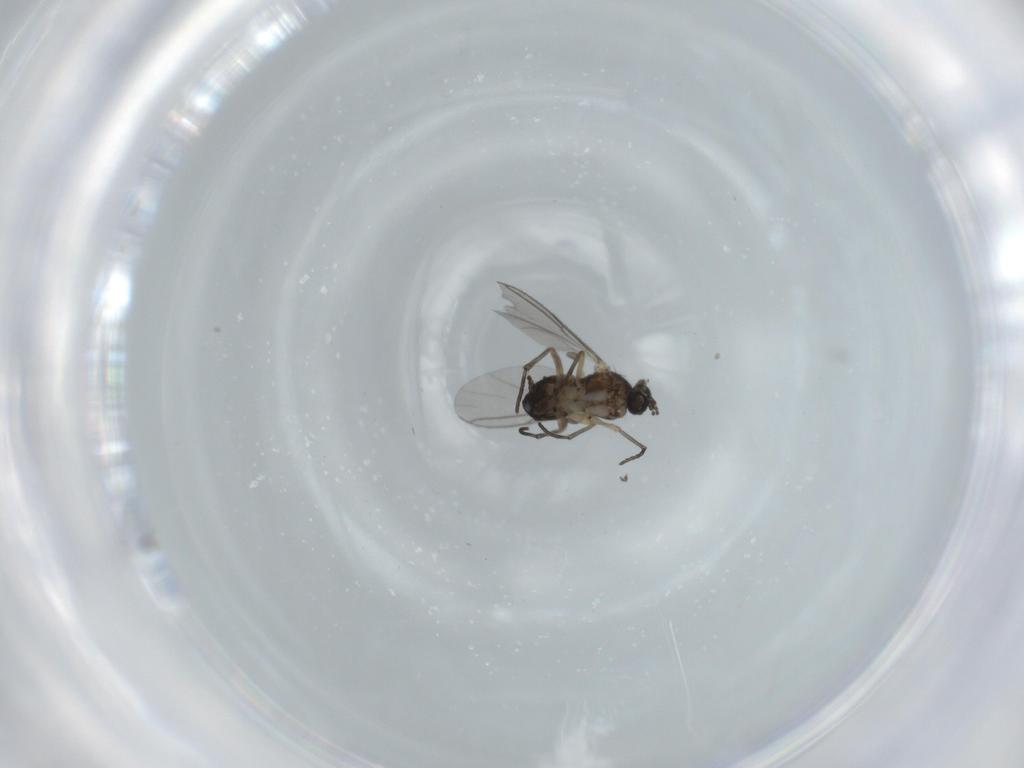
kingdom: Animalia
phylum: Arthropoda
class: Insecta
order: Diptera
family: Sciaridae
